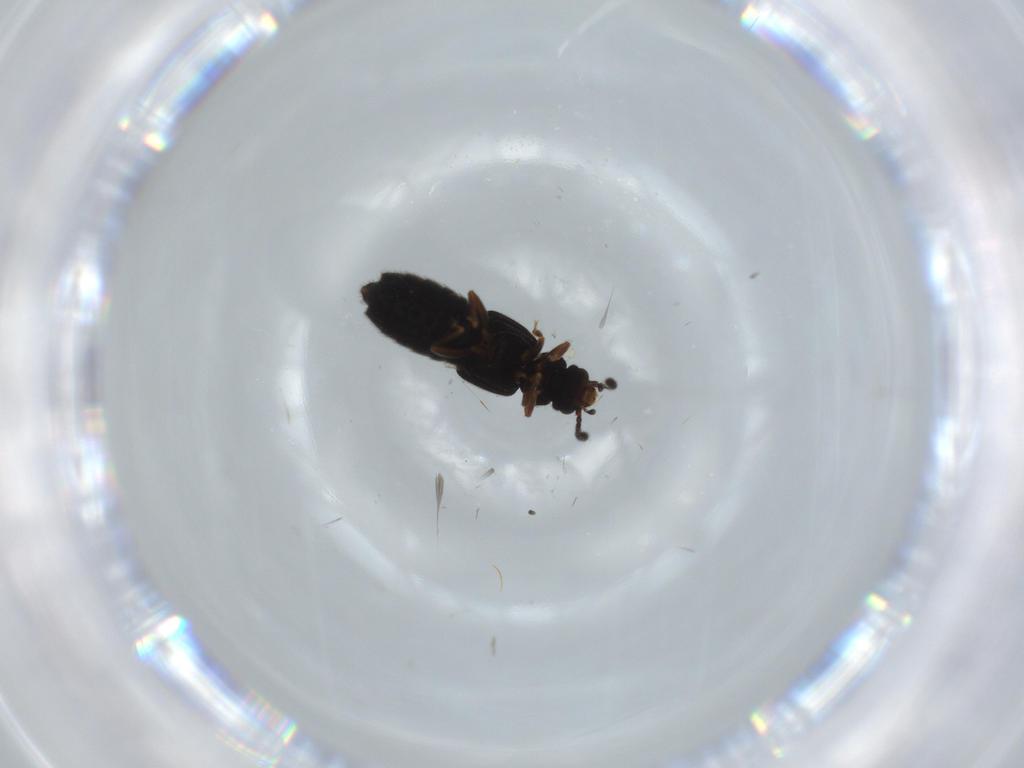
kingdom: Animalia
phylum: Arthropoda
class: Insecta
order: Coleoptera
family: Staphylinidae
